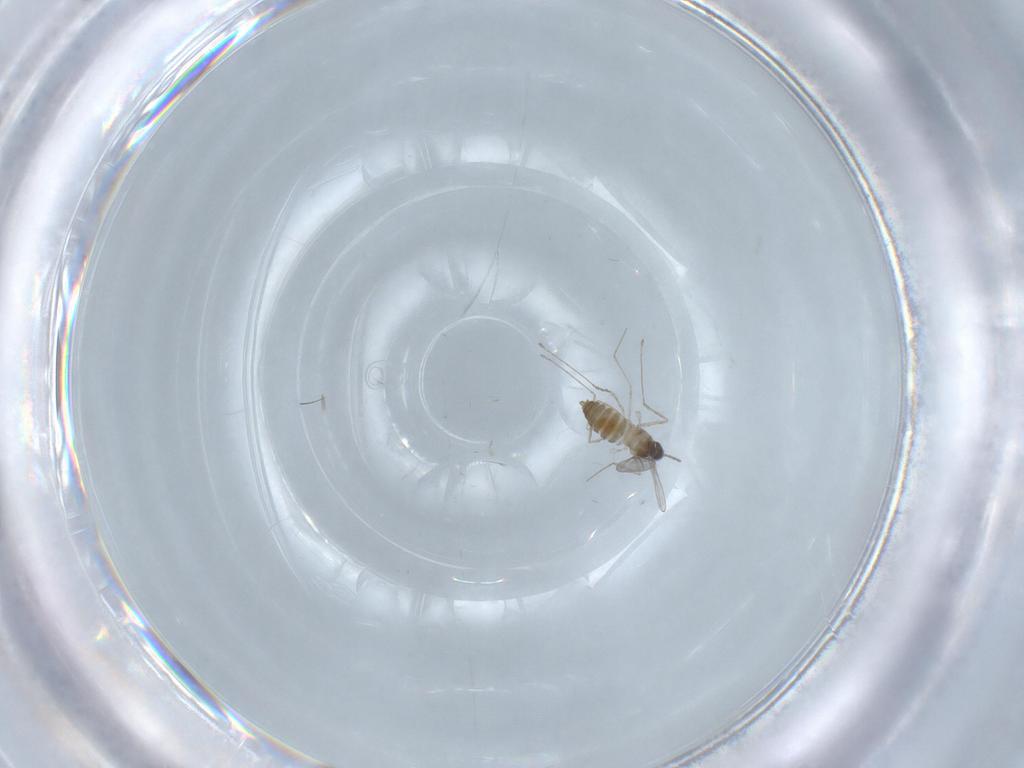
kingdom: Animalia
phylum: Arthropoda
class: Insecta
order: Diptera
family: Cecidomyiidae
